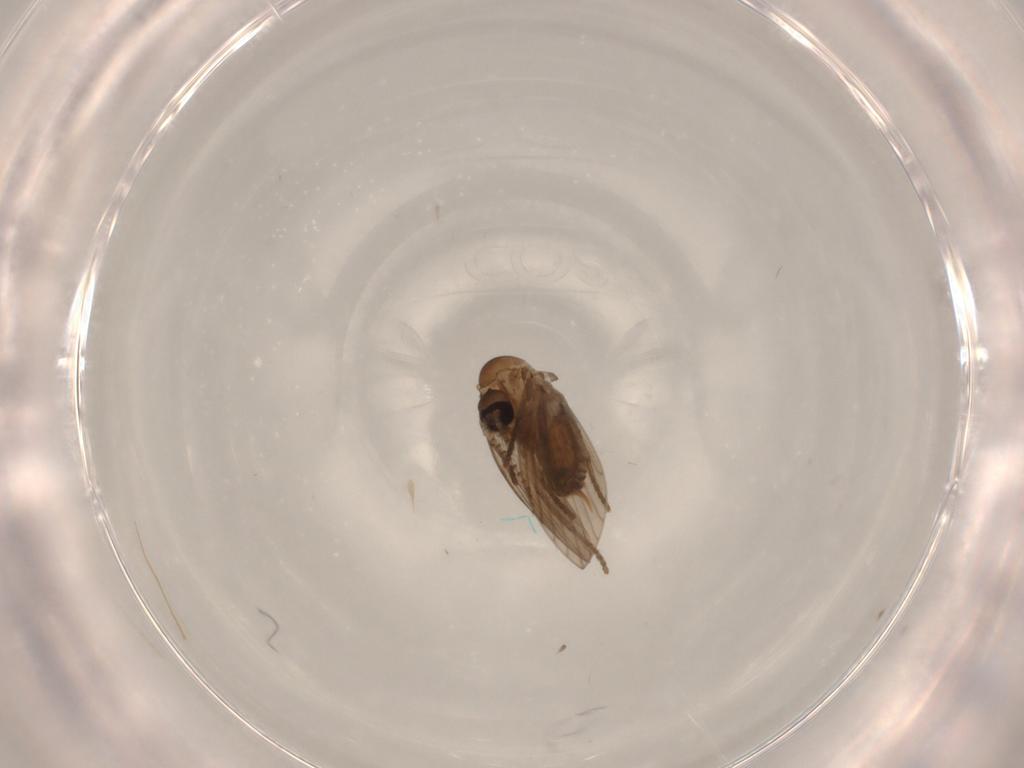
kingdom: Animalia
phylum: Arthropoda
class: Insecta
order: Diptera
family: Psychodidae
